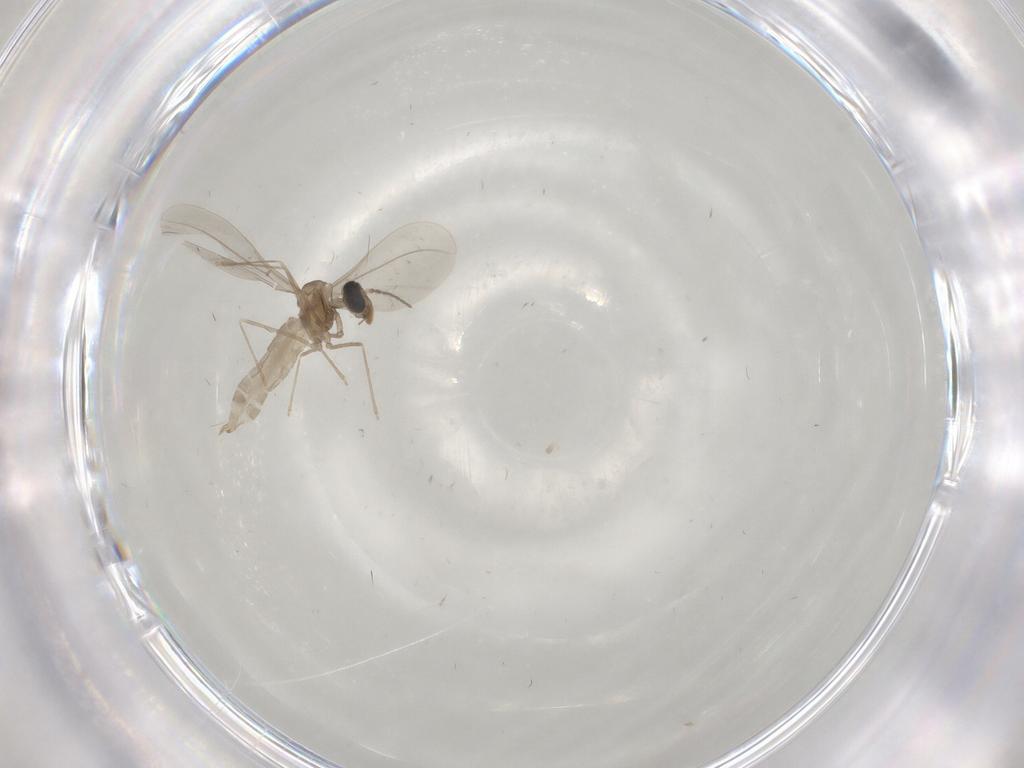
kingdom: Animalia
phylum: Arthropoda
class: Insecta
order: Diptera
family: Cecidomyiidae
